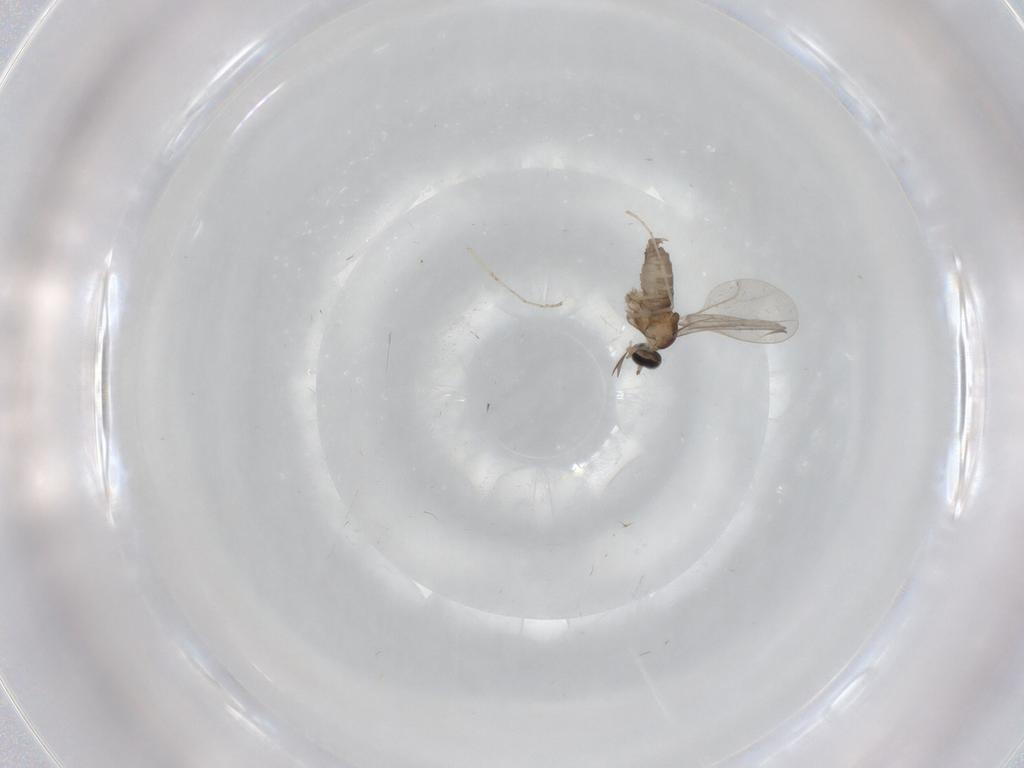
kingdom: Animalia
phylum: Arthropoda
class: Insecta
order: Diptera
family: Cecidomyiidae
